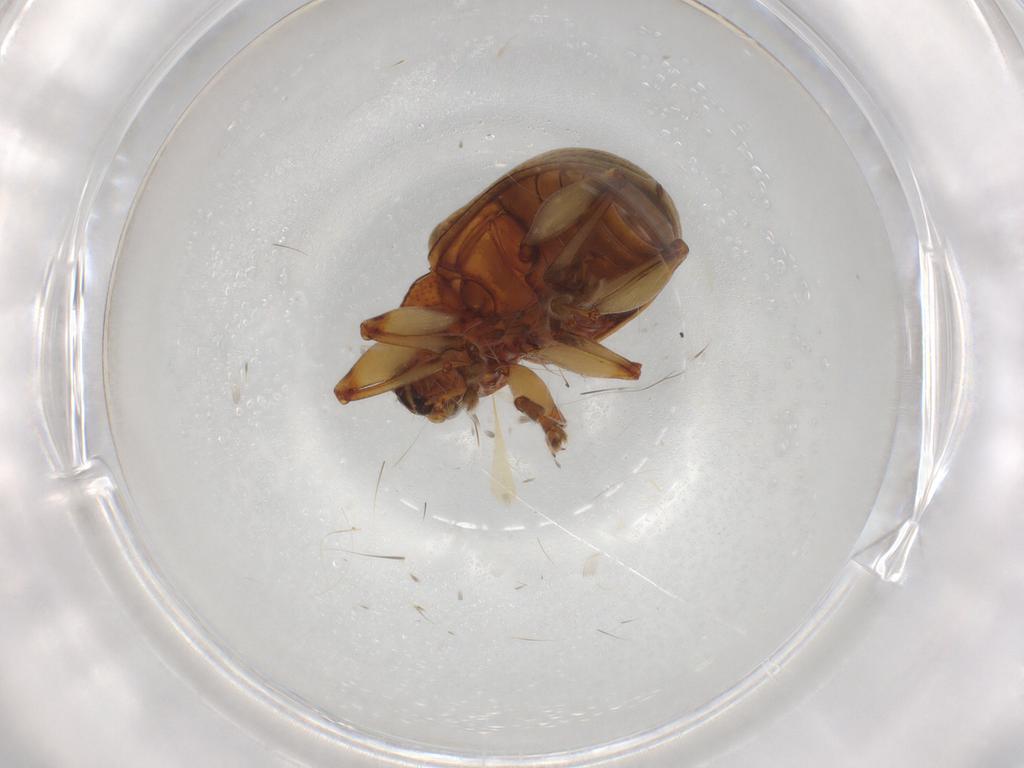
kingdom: Animalia
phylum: Arthropoda
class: Insecta
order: Coleoptera
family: Chrysomelidae
